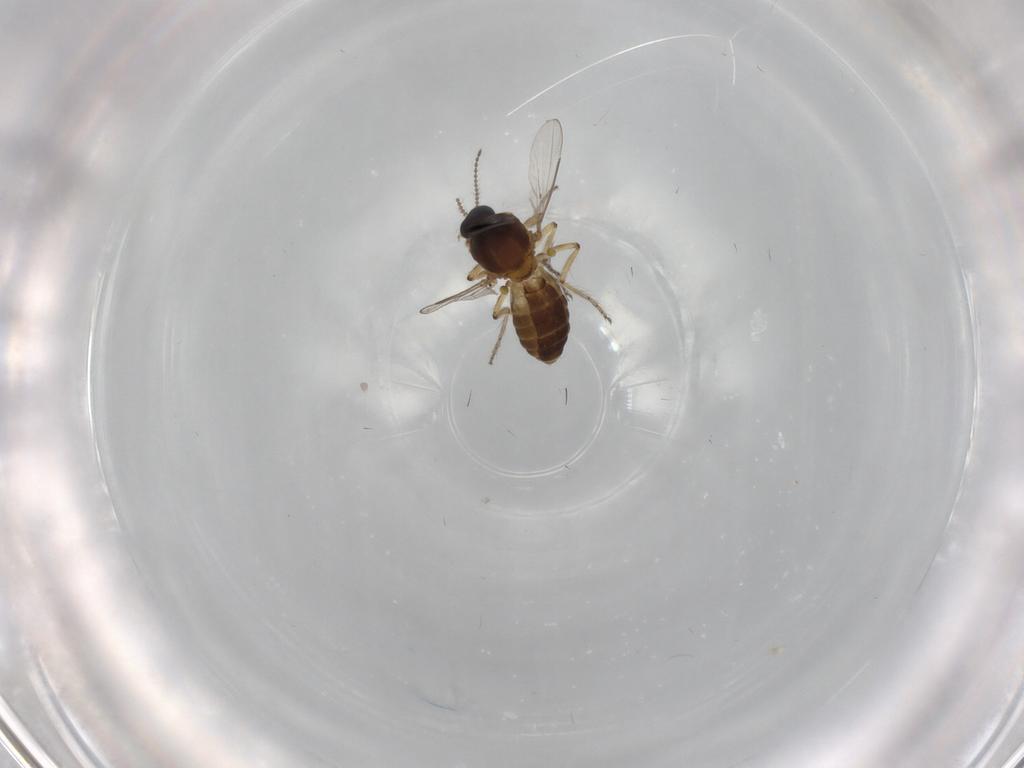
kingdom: Animalia
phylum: Arthropoda
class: Insecta
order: Diptera
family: Ceratopogonidae
